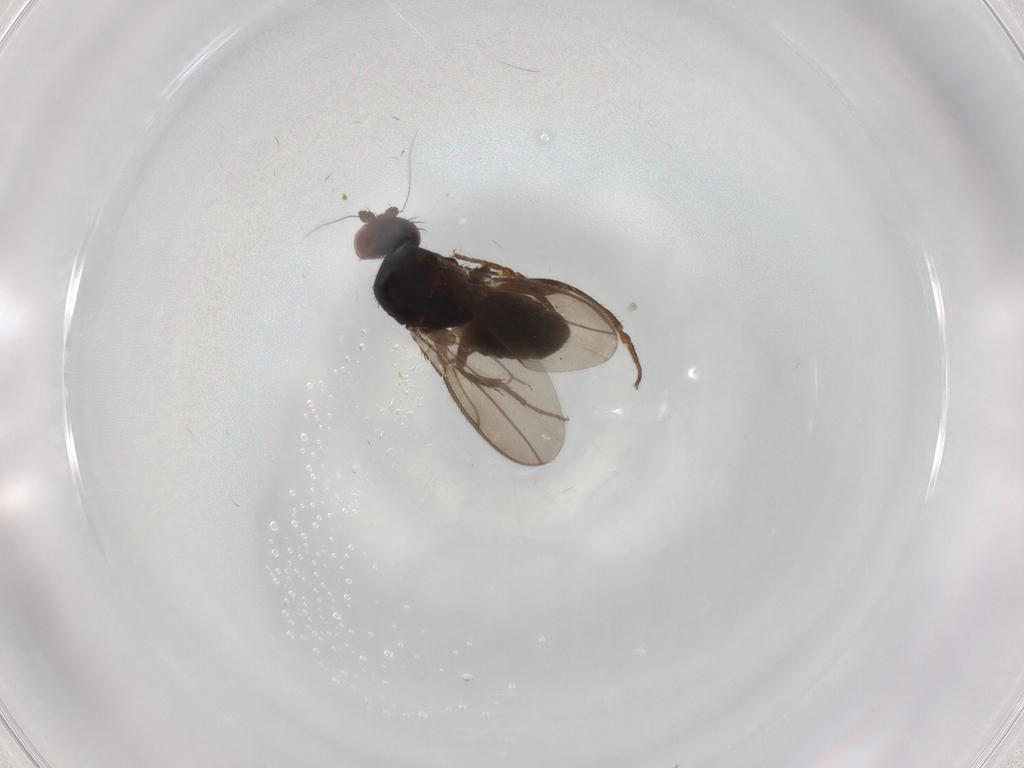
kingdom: Animalia
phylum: Arthropoda
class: Insecta
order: Diptera
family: Sphaeroceridae
